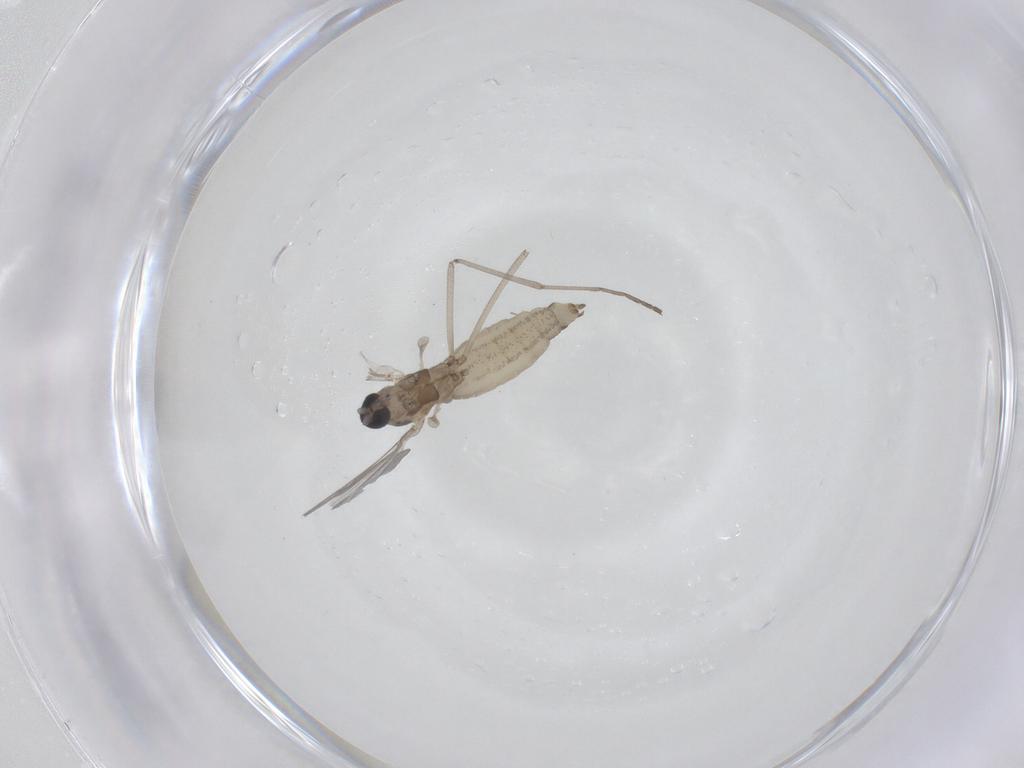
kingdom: Animalia
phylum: Arthropoda
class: Insecta
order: Diptera
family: Cecidomyiidae
